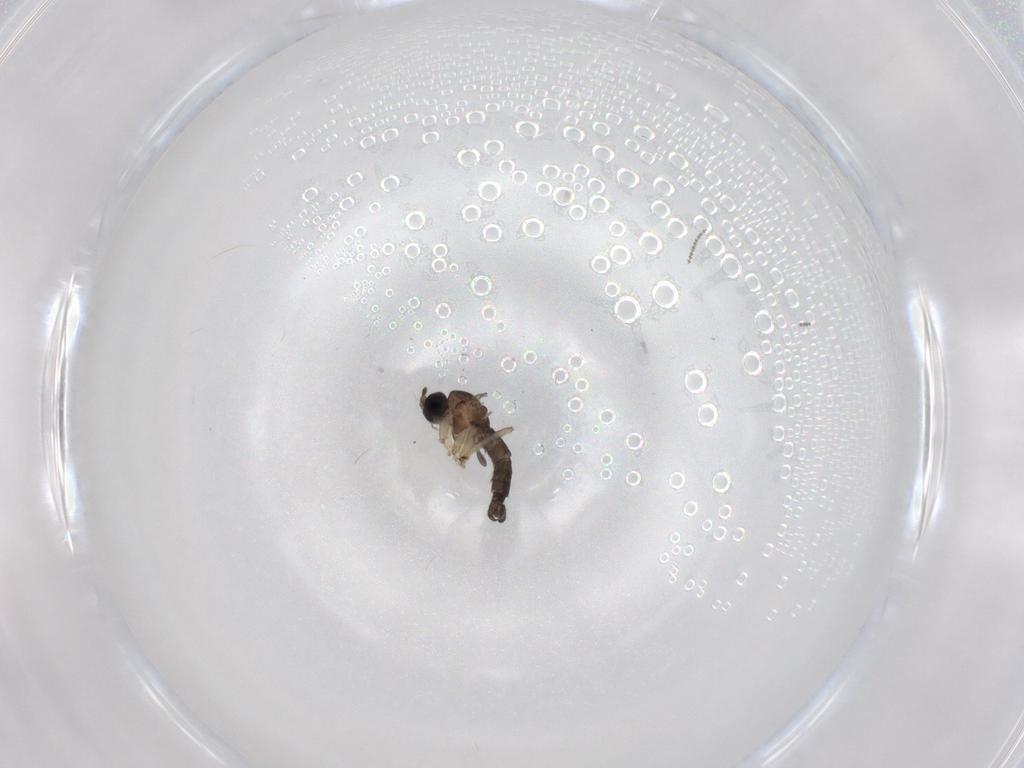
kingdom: Animalia
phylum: Arthropoda
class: Insecta
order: Diptera
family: Sciaridae
